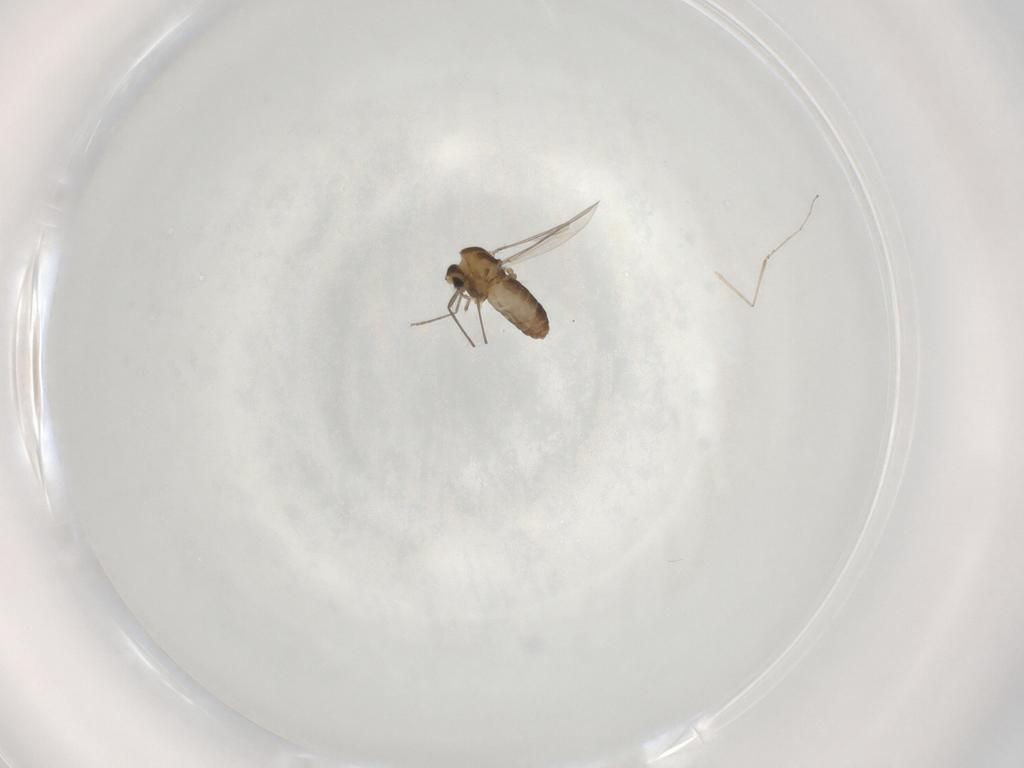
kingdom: Animalia
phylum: Arthropoda
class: Insecta
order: Diptera
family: Chironomidae
